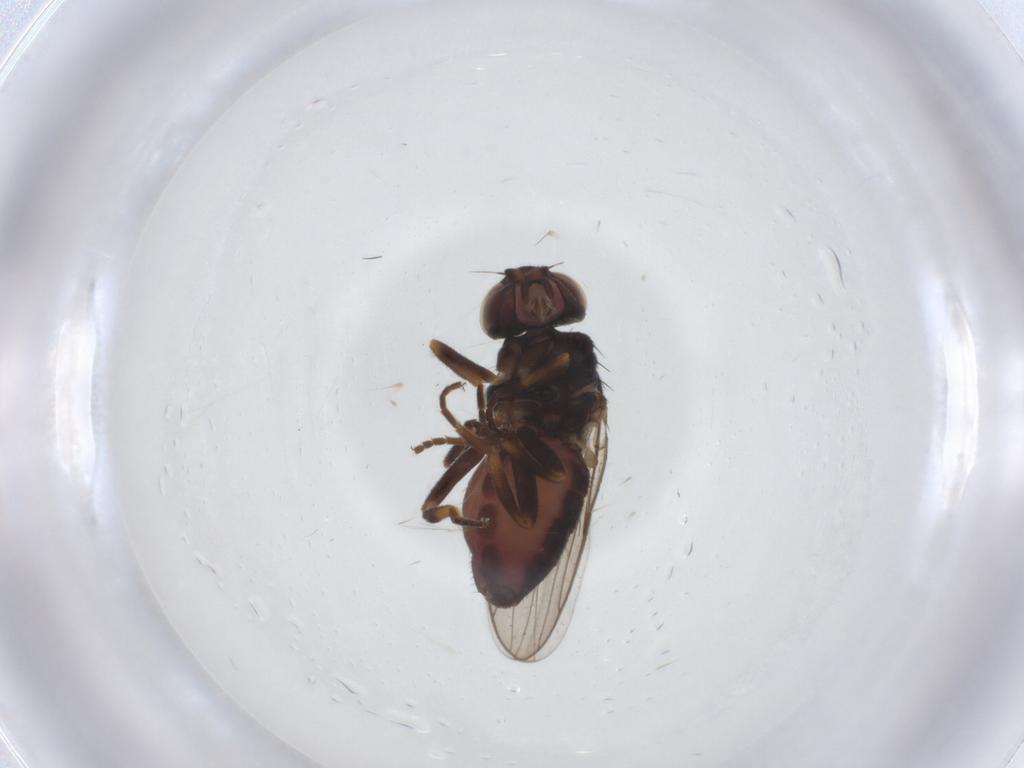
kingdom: Animalia
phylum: Arthropoda
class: Insecta
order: Diptera
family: Chloropidae
